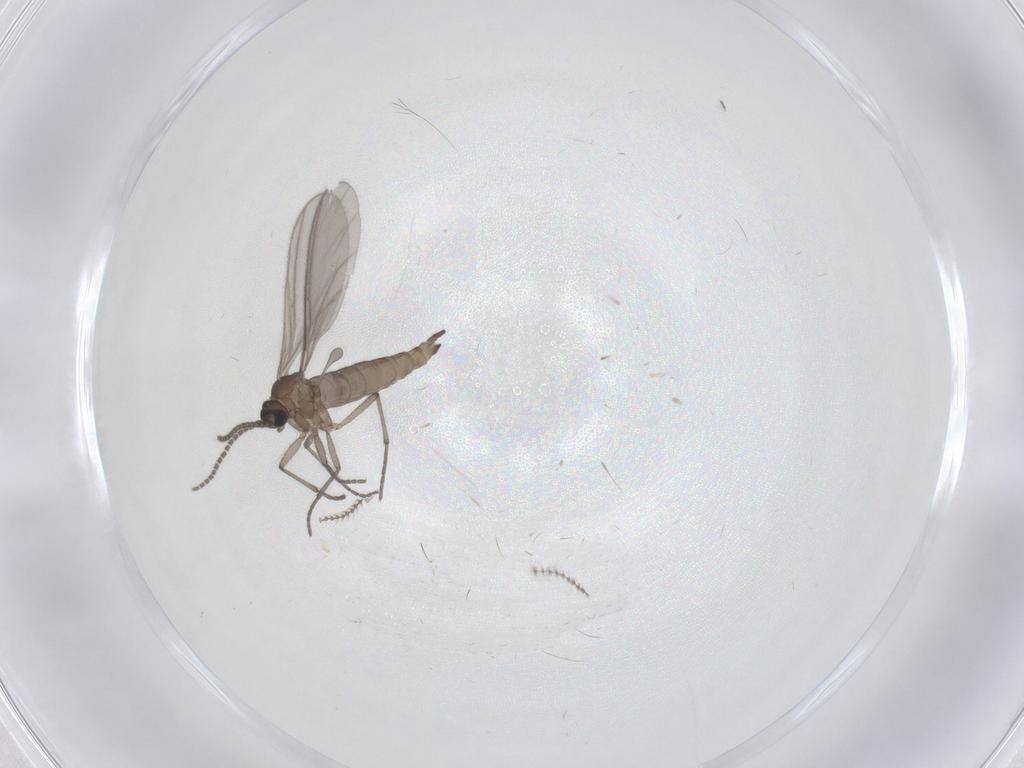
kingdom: Animalia
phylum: Arthropoda
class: Insecta
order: Diptera
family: Sciaridae
